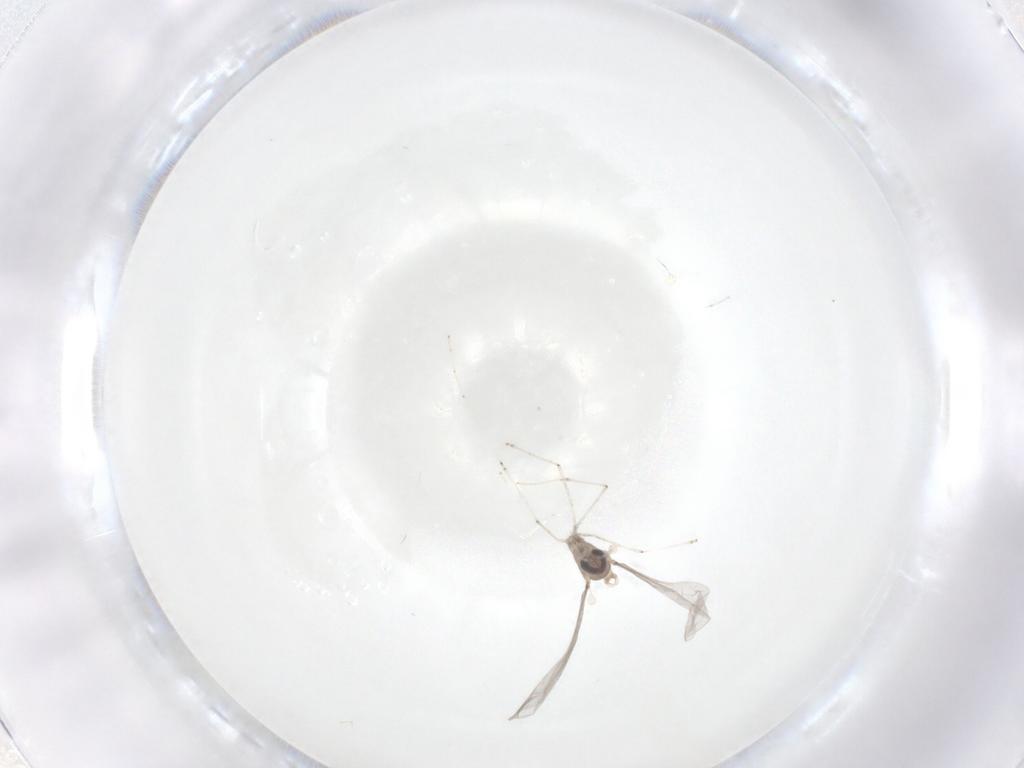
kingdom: Animalia
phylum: Arthropoda
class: Insecta
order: Diptera
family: Cecidomyiidae
